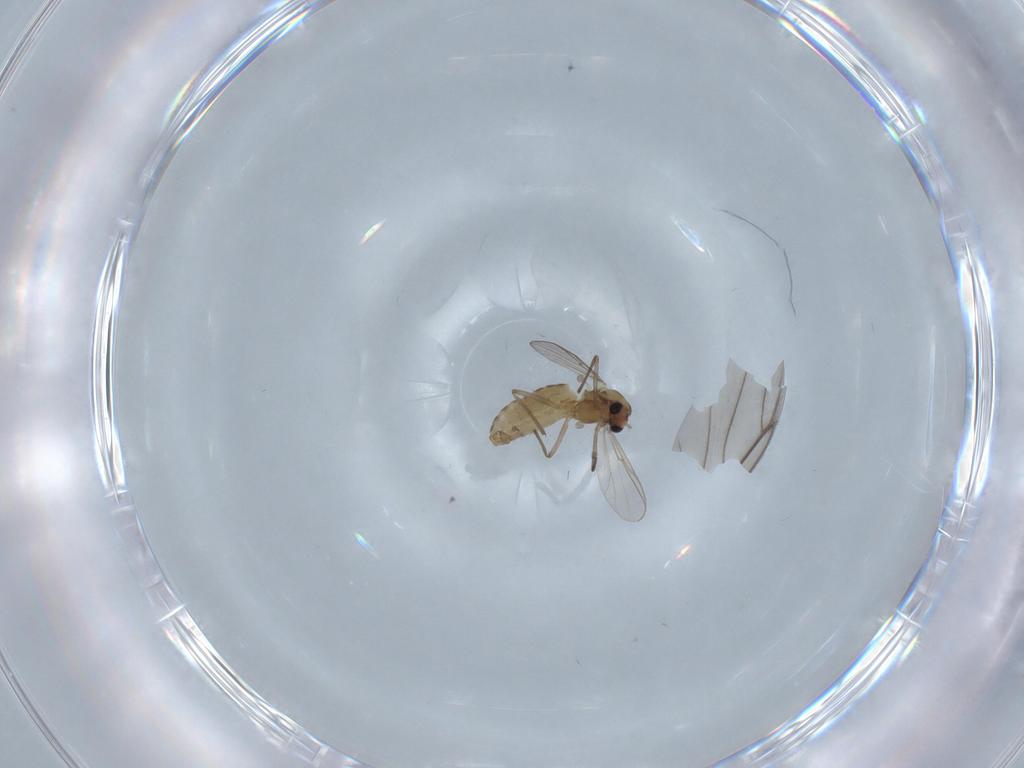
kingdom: Animalia
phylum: Arthropoda
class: Insecta
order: Diptera
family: Chironomidae
